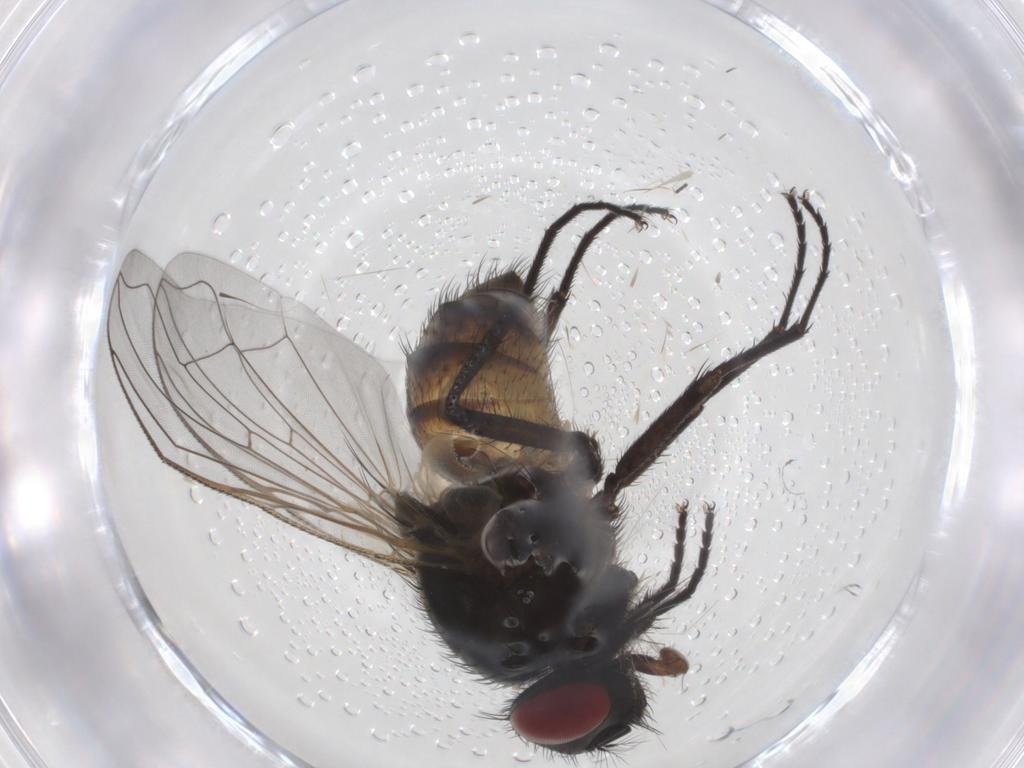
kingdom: Animalia
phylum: Arthropoda
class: Insecta
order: Diptera
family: Muscidae
